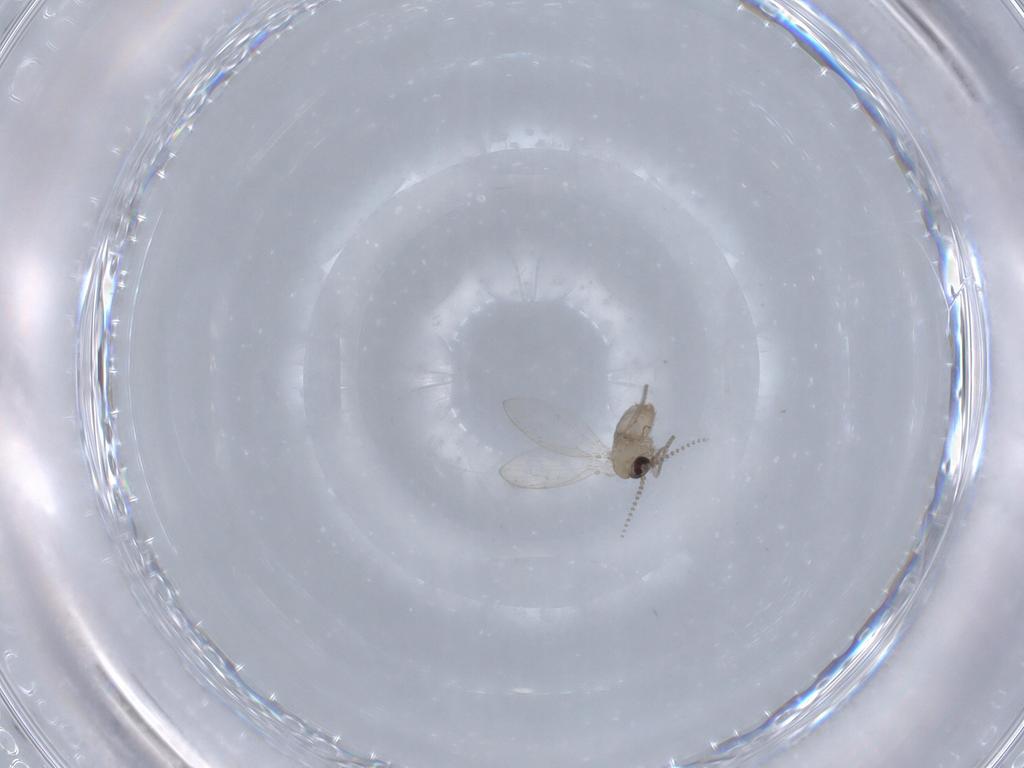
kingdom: Animalia
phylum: Arthropoda
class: Insecta
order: Diptera
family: Psychodidae
